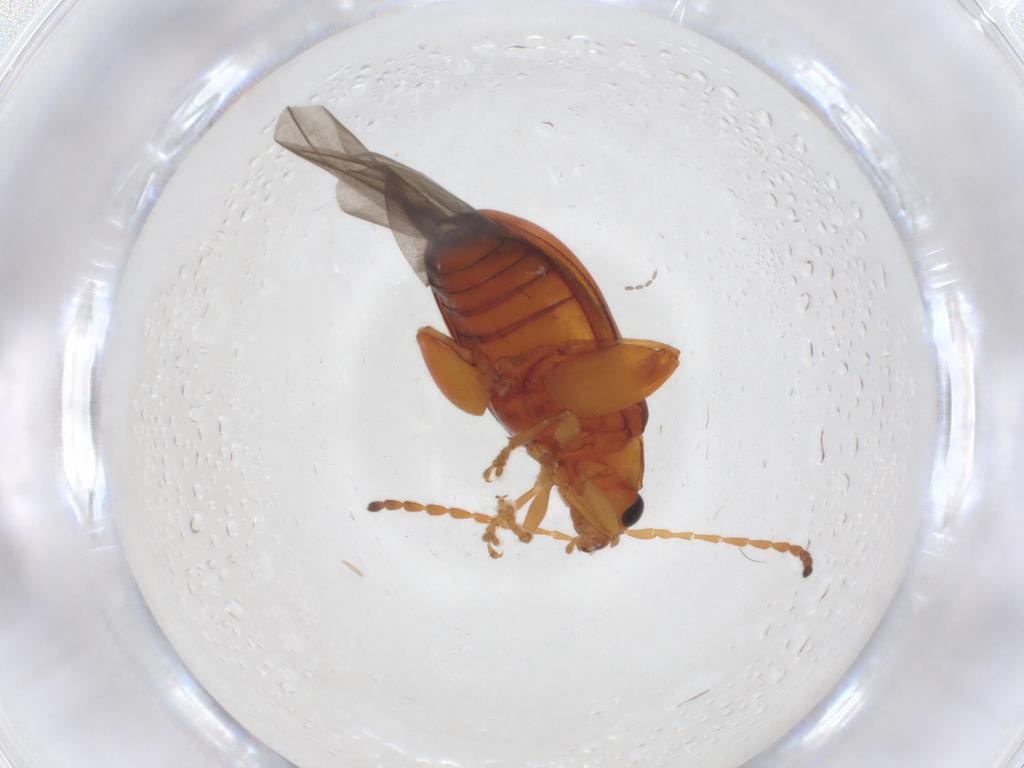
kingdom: Animalia
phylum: Arthropoda
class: Insecta
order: Coleoptera
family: Chrysomelidae
